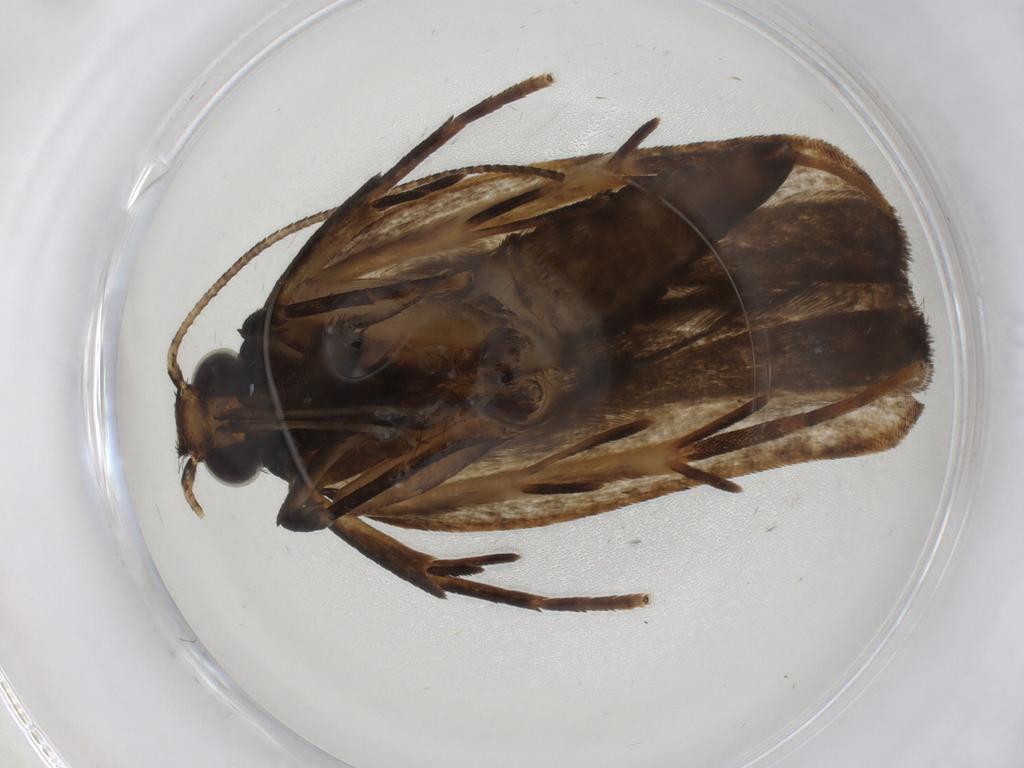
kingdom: Animalia
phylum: Arthropoda
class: Insecta
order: Lepidoptera
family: Gelechiidae
